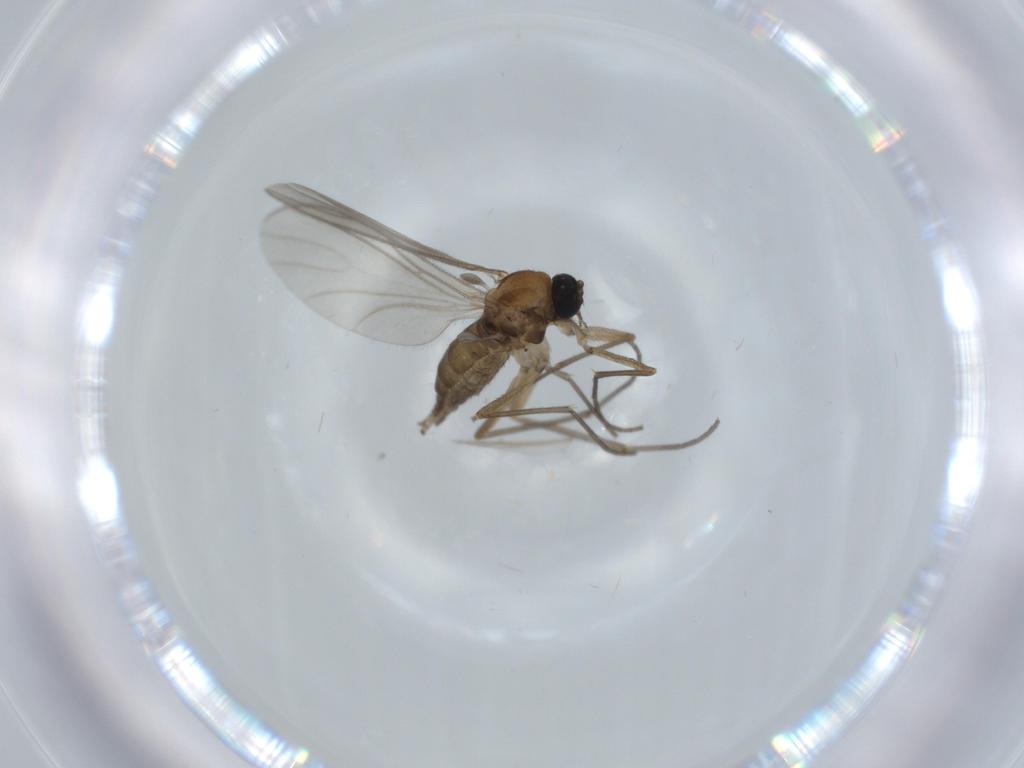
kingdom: Animalia
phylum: Arthropoda
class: Insecta
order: Diptera
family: Sciaridae
